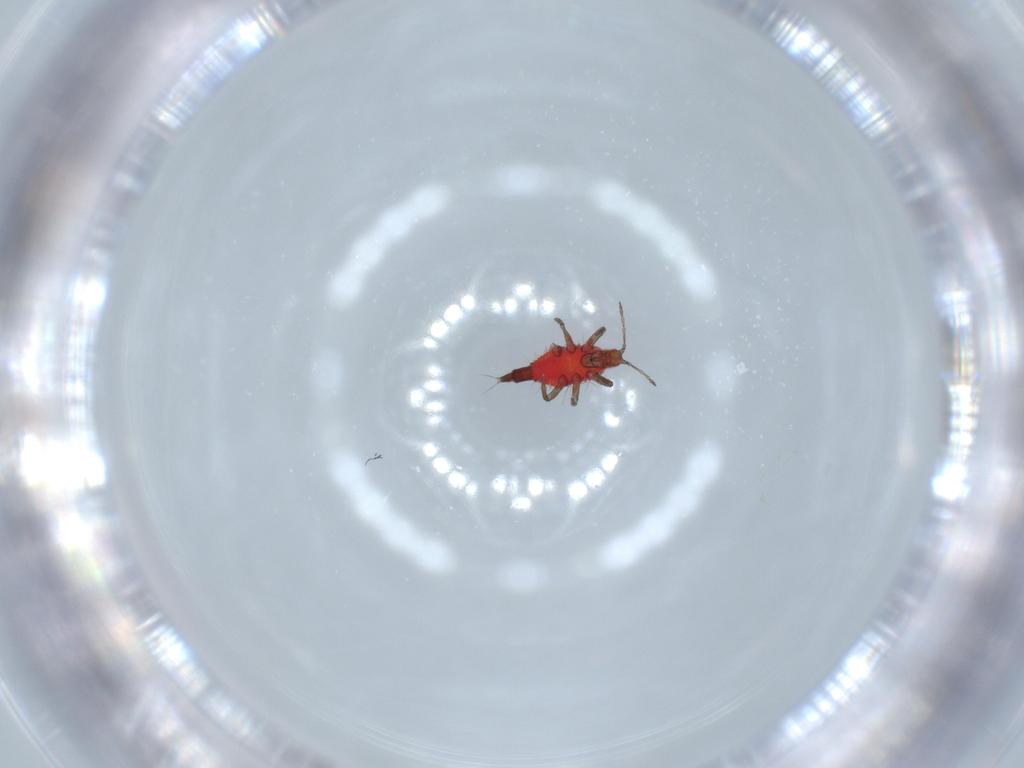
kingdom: Animalia
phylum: Arthropoda
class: Insecta
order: Thysanoptera
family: Phlaeothripidae
